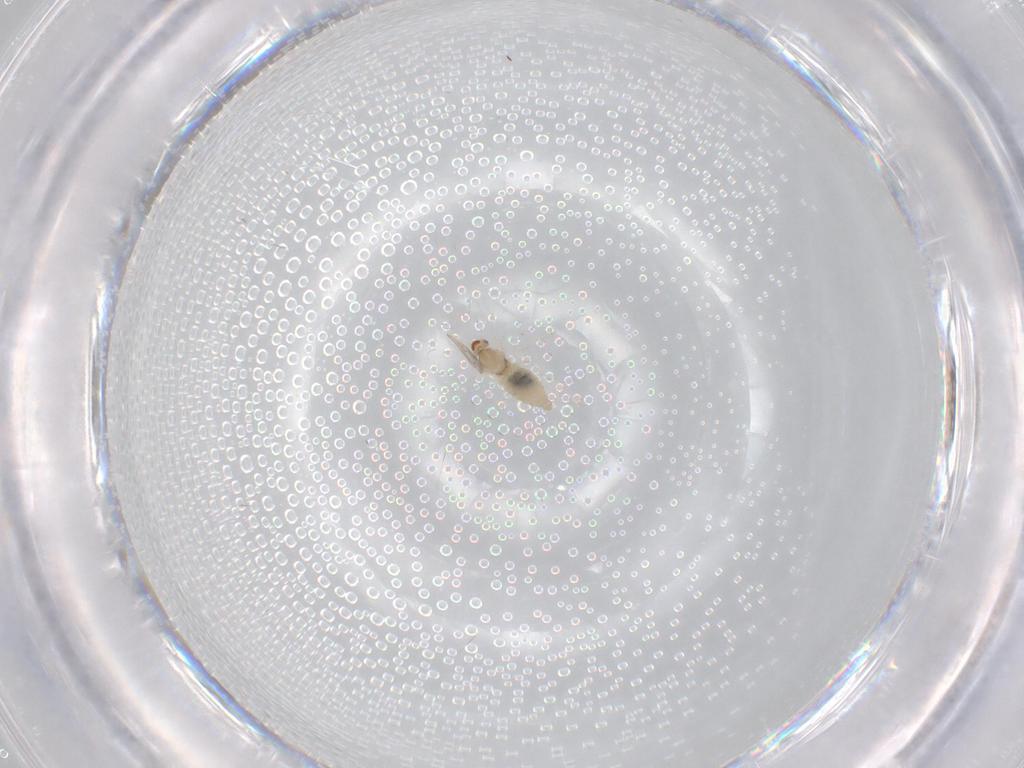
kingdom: Animalia
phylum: Arthropoda
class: Insecta
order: Diptera
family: Cecidomyiidae
